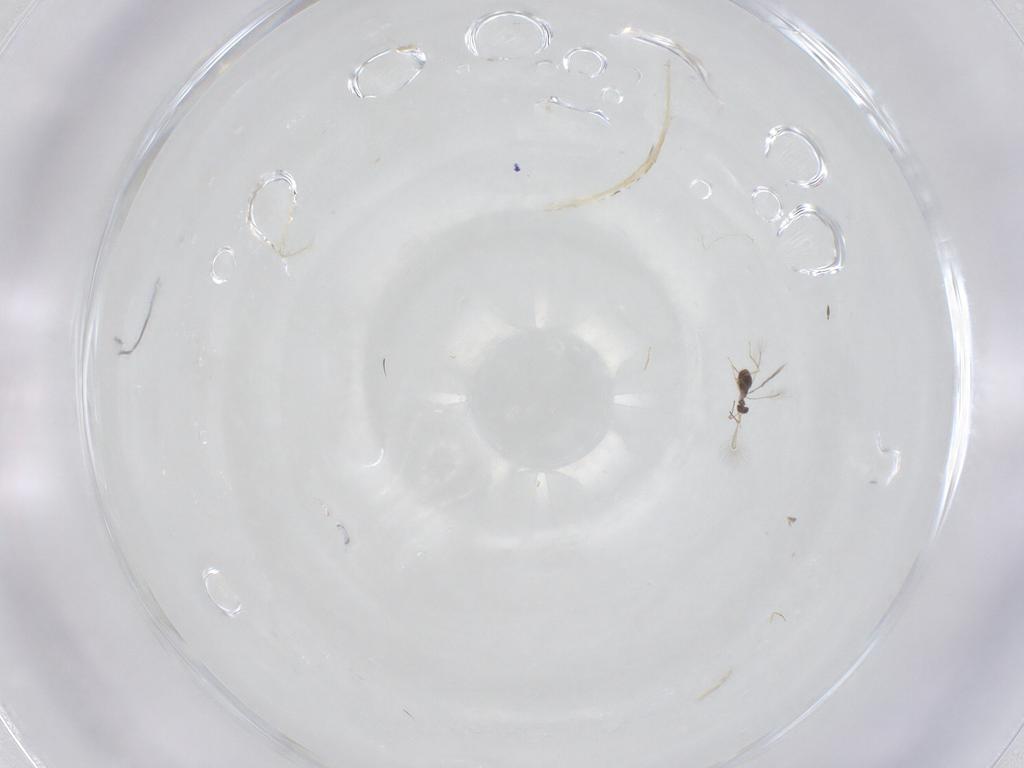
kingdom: Animalia
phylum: Arthropoda
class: Insecta
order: Hymenoptera
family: Mymaridae
